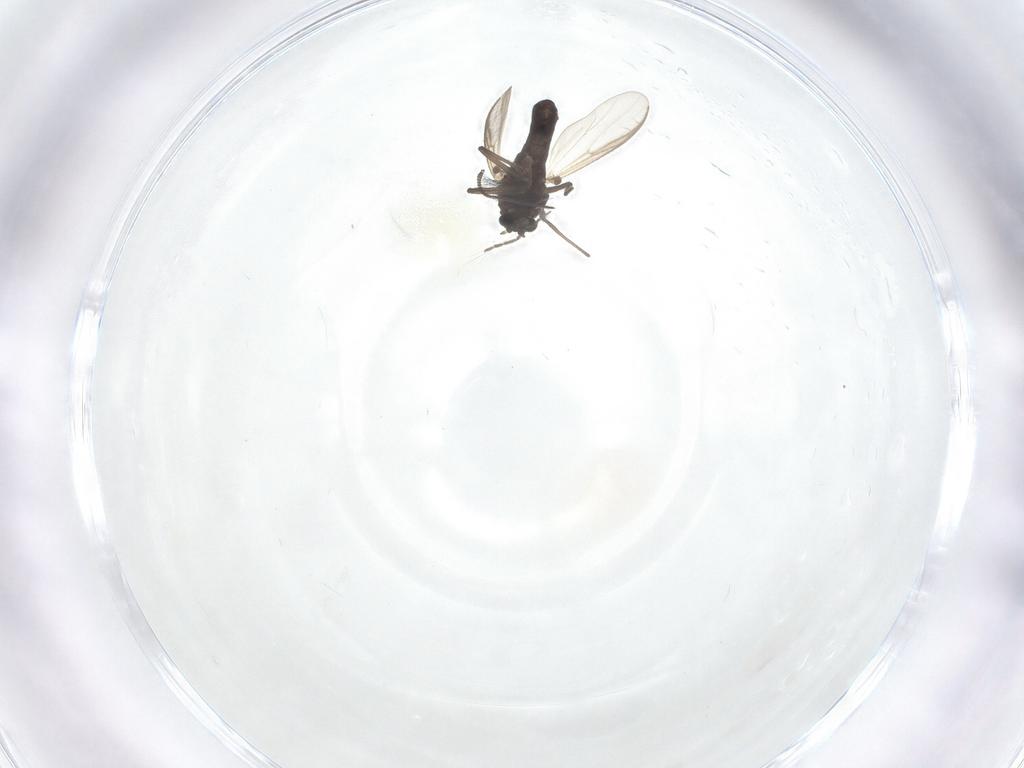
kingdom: Animalia
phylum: Arthropoda
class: Insecta
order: Diptera
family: Chironomidae
